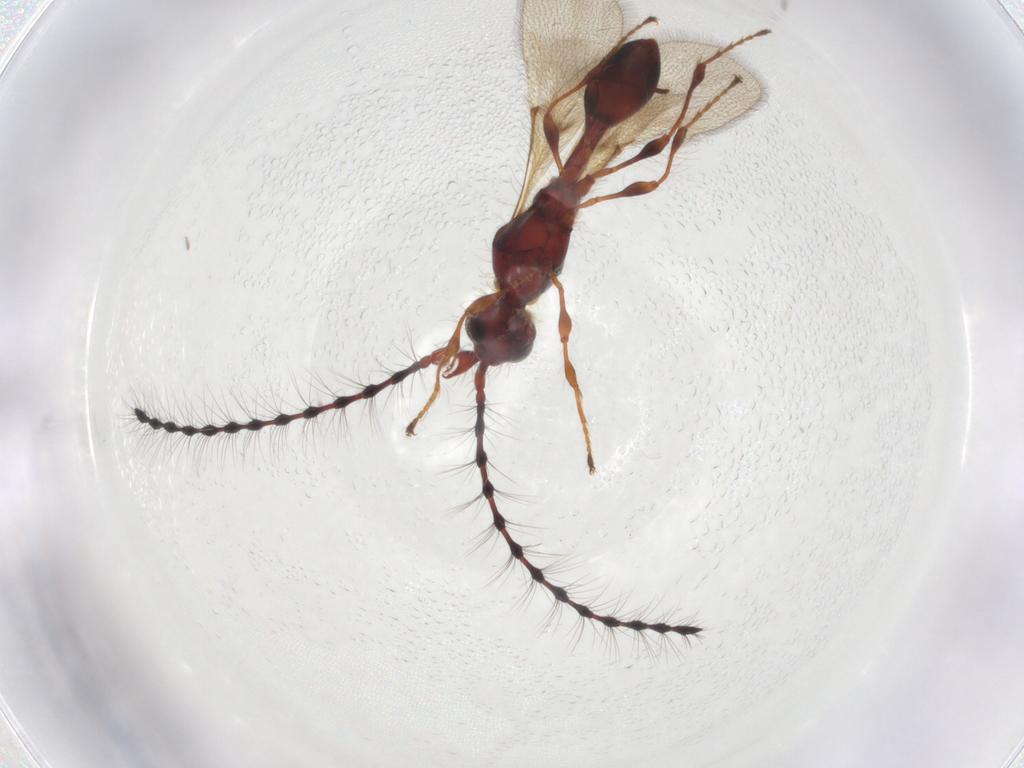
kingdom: Animalia
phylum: Arthropoda
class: Insecta
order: Hymenoptera
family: Diapriidae
